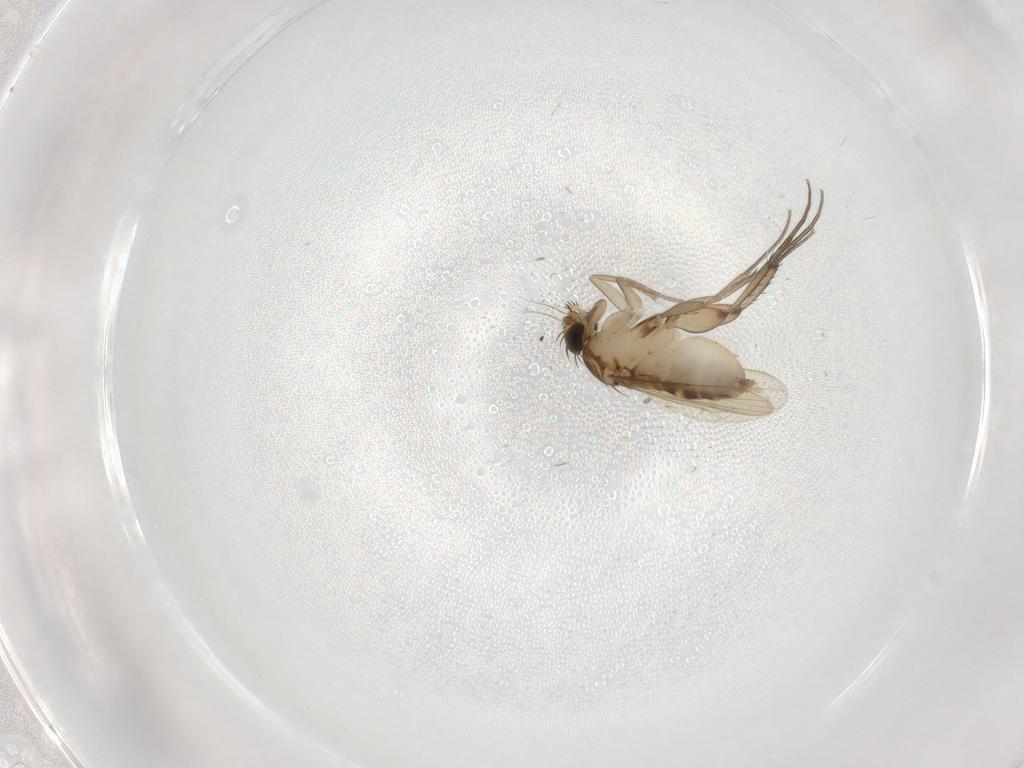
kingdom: Animalia
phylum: Arthropoda
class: Insecta
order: Diptera
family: Phoridae
